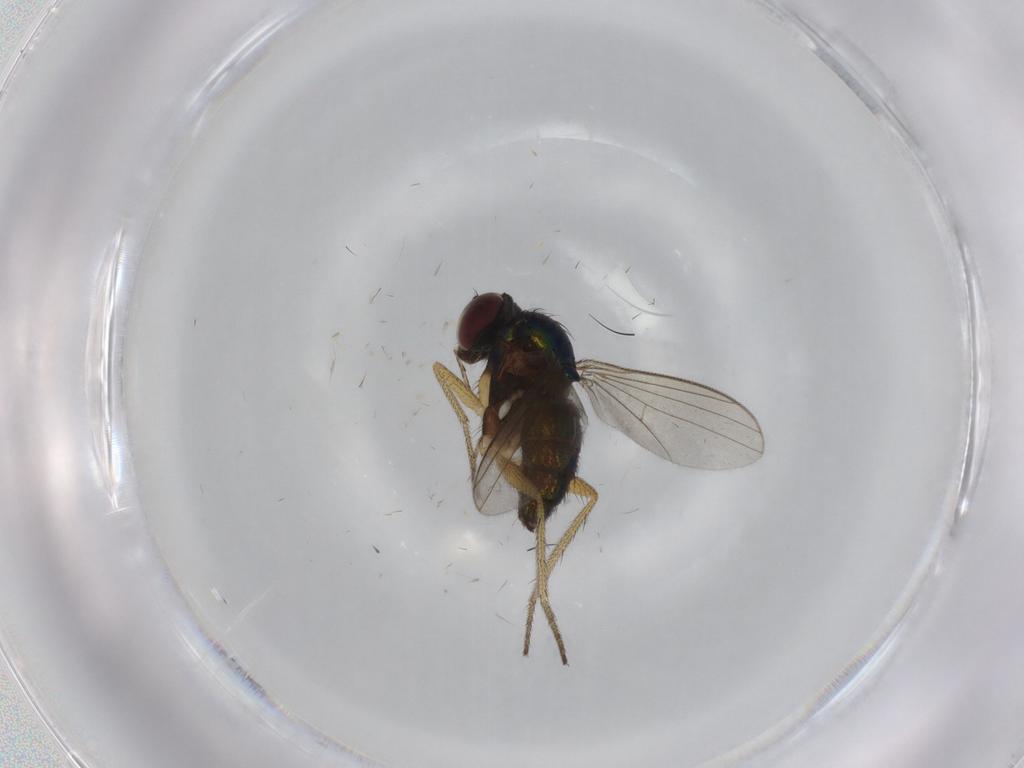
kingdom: Animalia
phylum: Arthropoda
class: Insecta
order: Diptera
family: Dolichopodidae
